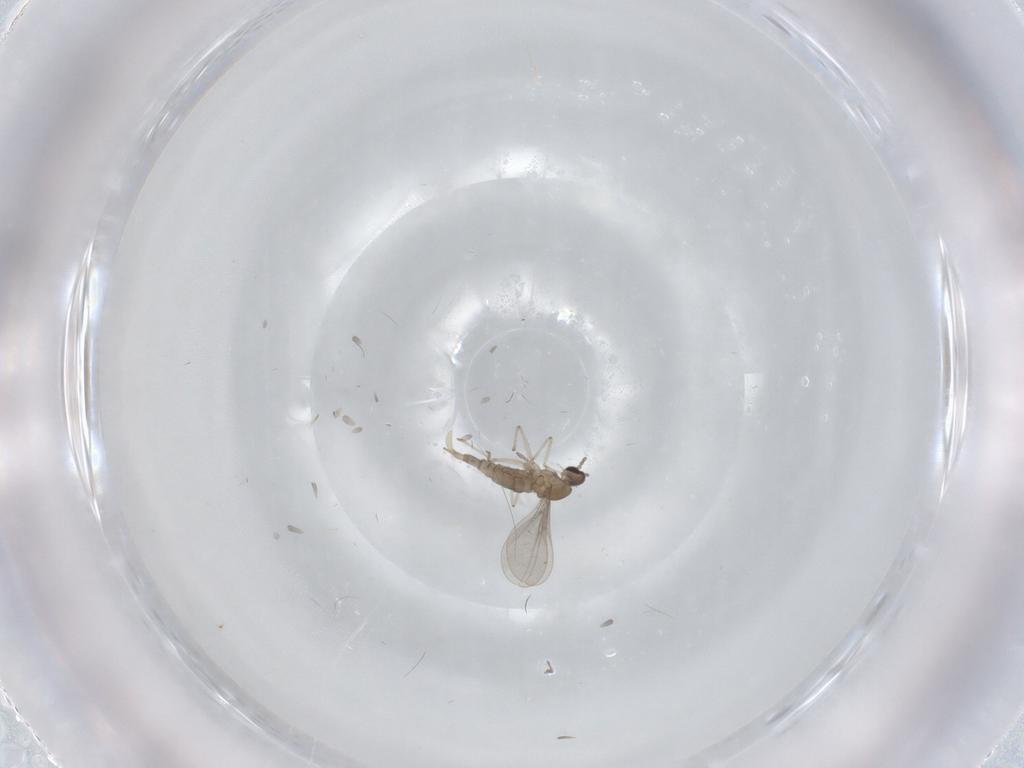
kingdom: Animalia
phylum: Arthropoda
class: Insecta
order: Diptera
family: Cecidomyiidae
